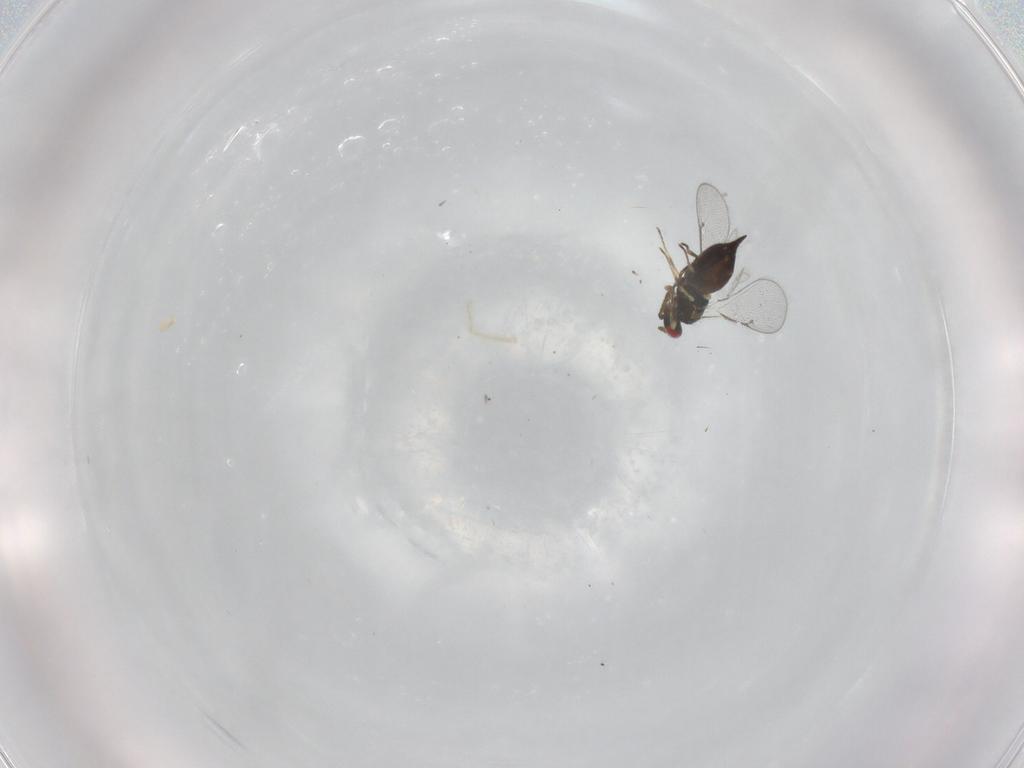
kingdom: Animalia
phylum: Arthropoda
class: Insecta
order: Hymenoptera
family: Eulophidae
